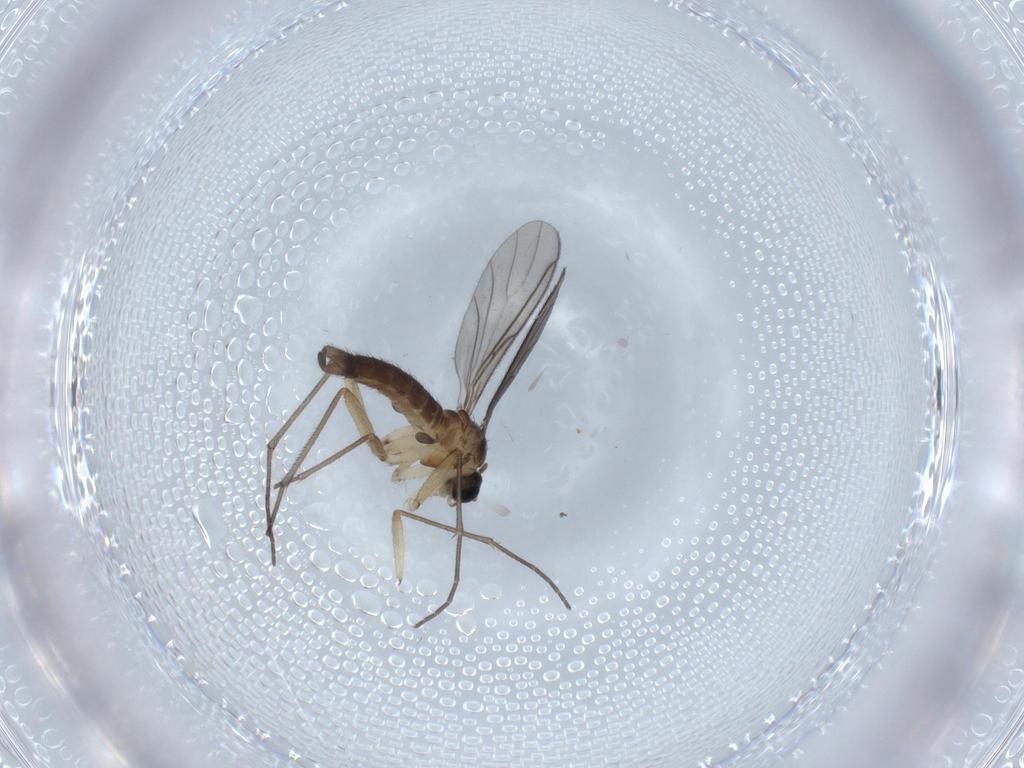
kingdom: Animalia
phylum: Arthropoda
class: Insecta
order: Diptera
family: Sciaridae
